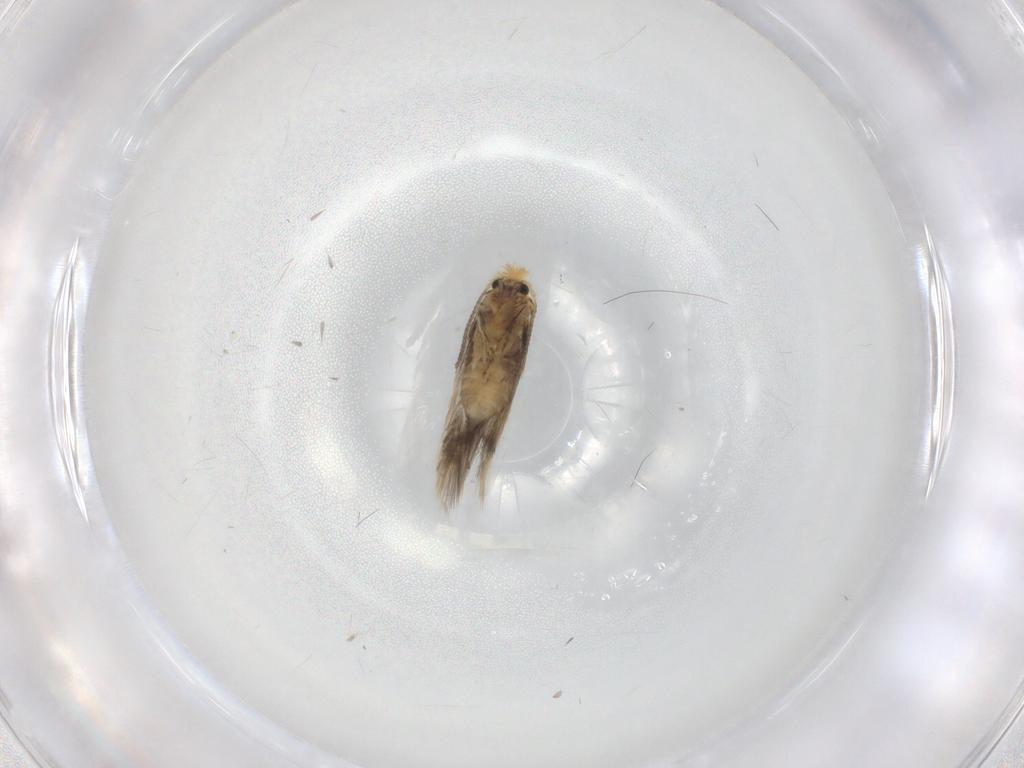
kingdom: Animalia
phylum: Arthropoda
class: Insecta
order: Lepidoptera
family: Nepticulidae
